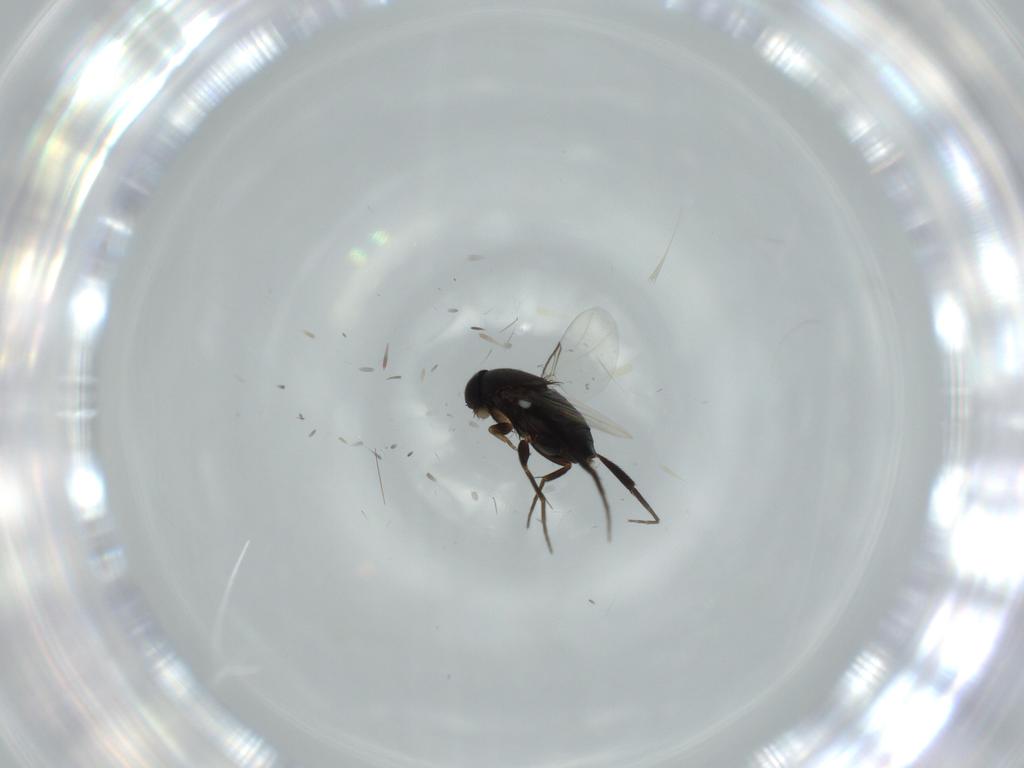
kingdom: Animalia
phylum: Arthropoda
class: Insecta
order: Diptera
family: Phoridae
